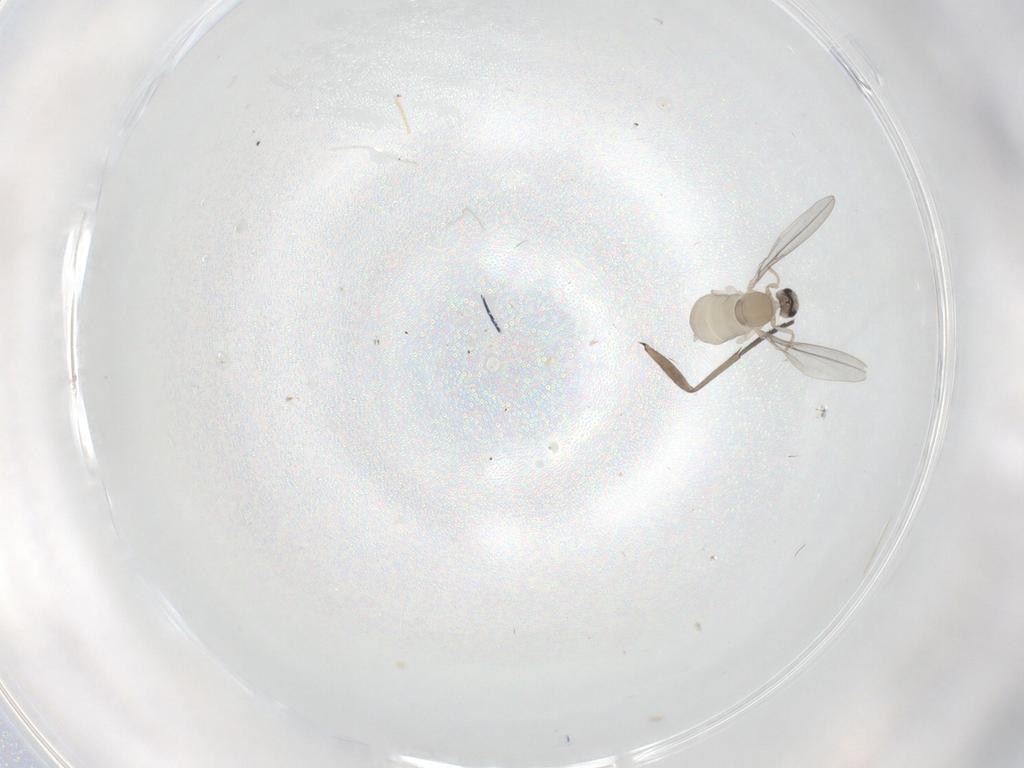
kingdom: Animalia
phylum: Arthropoda
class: Insecta
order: Diptera
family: Cecidomyiidae
